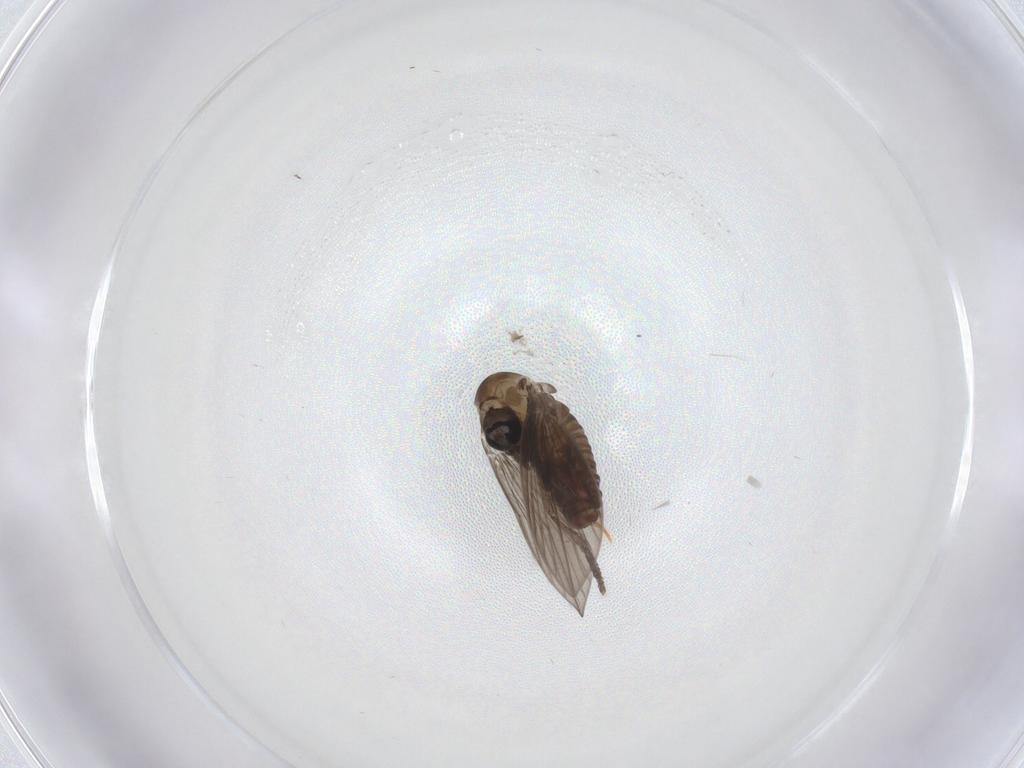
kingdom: Animalia
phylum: Arthropoda
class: Insecta
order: Diptera
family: Psychodidae
